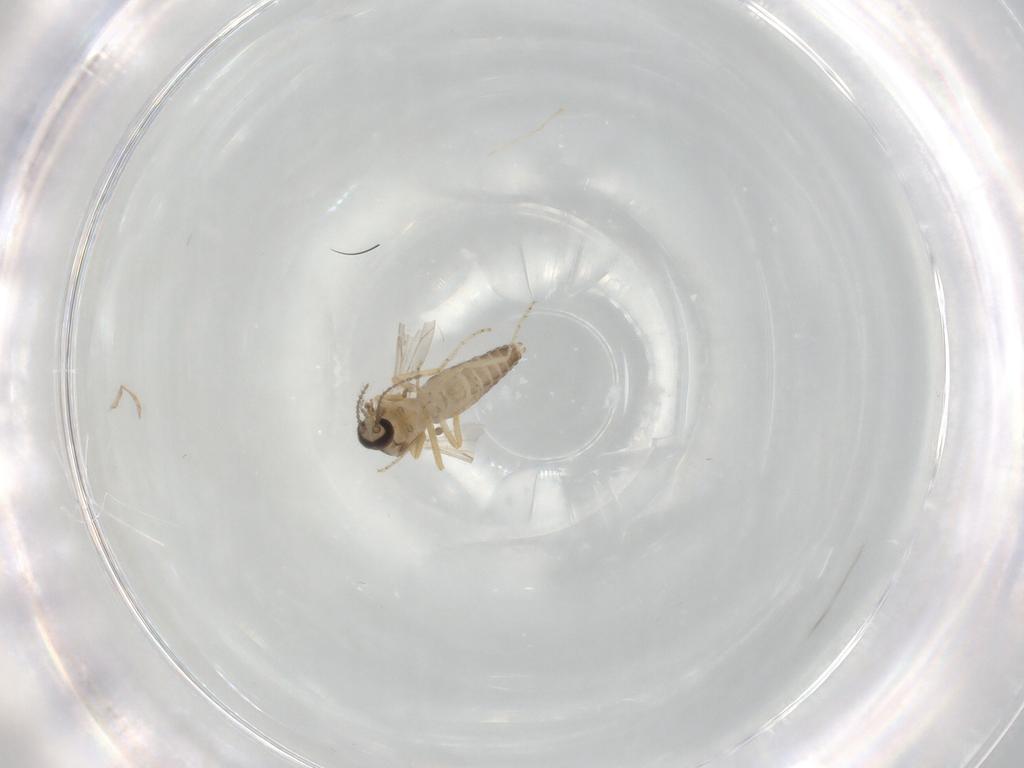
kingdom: Animalia
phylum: Arthropoda
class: Insecta
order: Diptera
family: Ceratopogonidae
